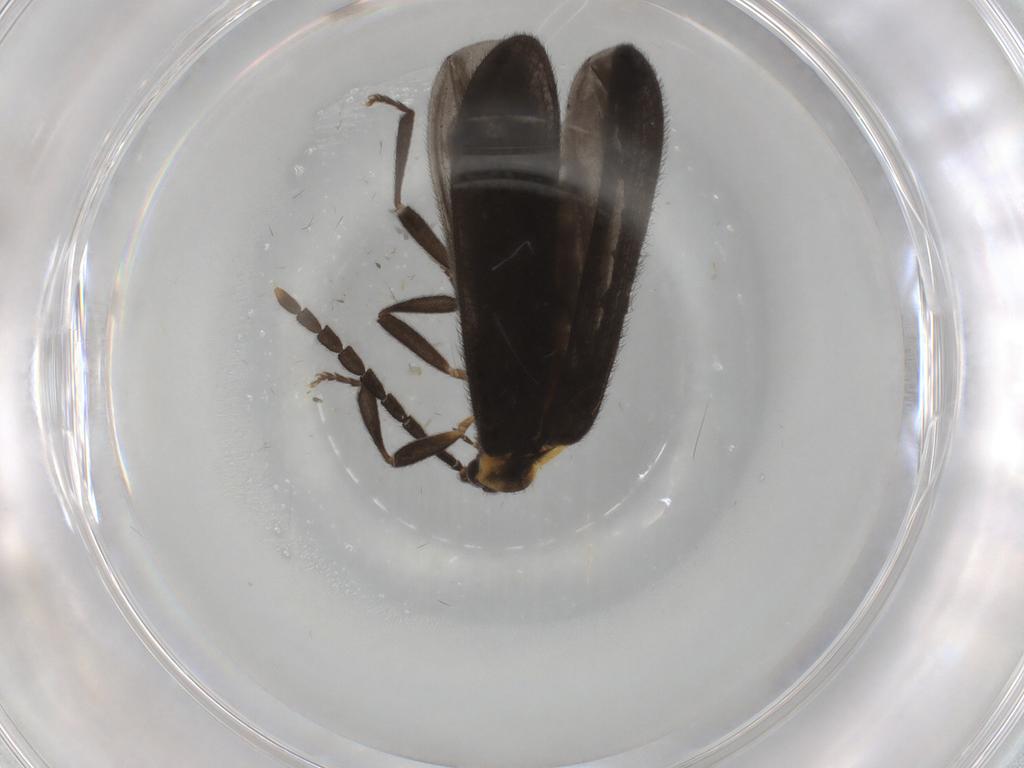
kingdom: Animalia
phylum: Arthropoda
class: Insecta
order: Coleoptera
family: Lycidae
